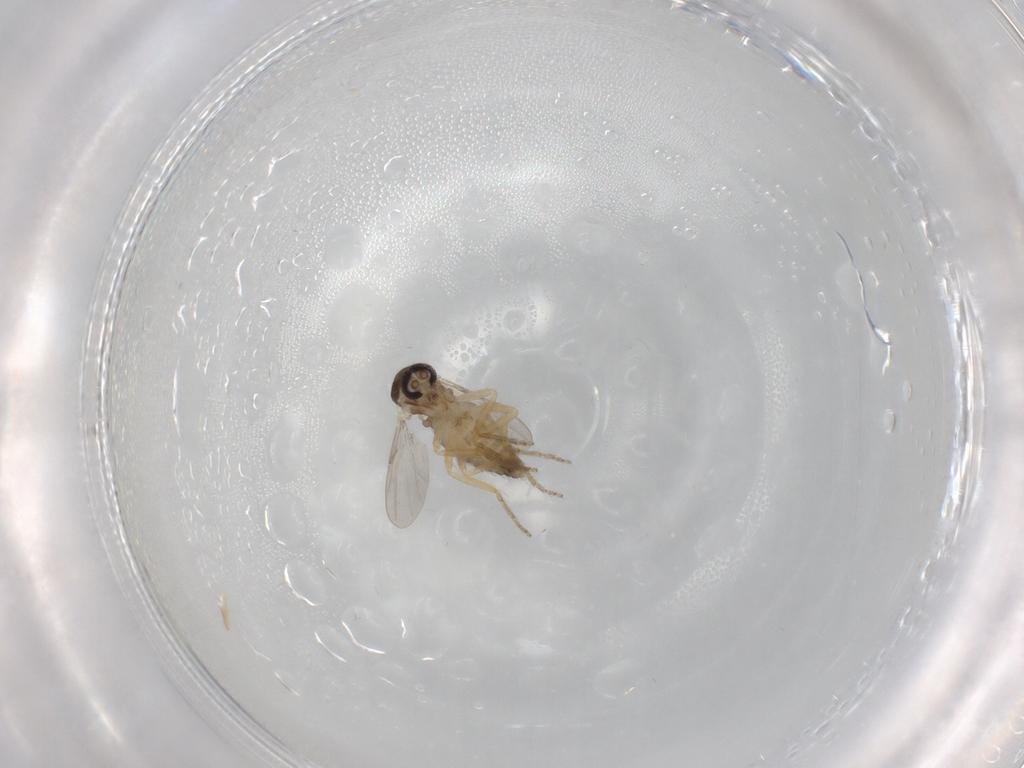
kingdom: Animalia
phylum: Arthropoda
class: Insecta
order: Diptera
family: Ceratopogonidae
